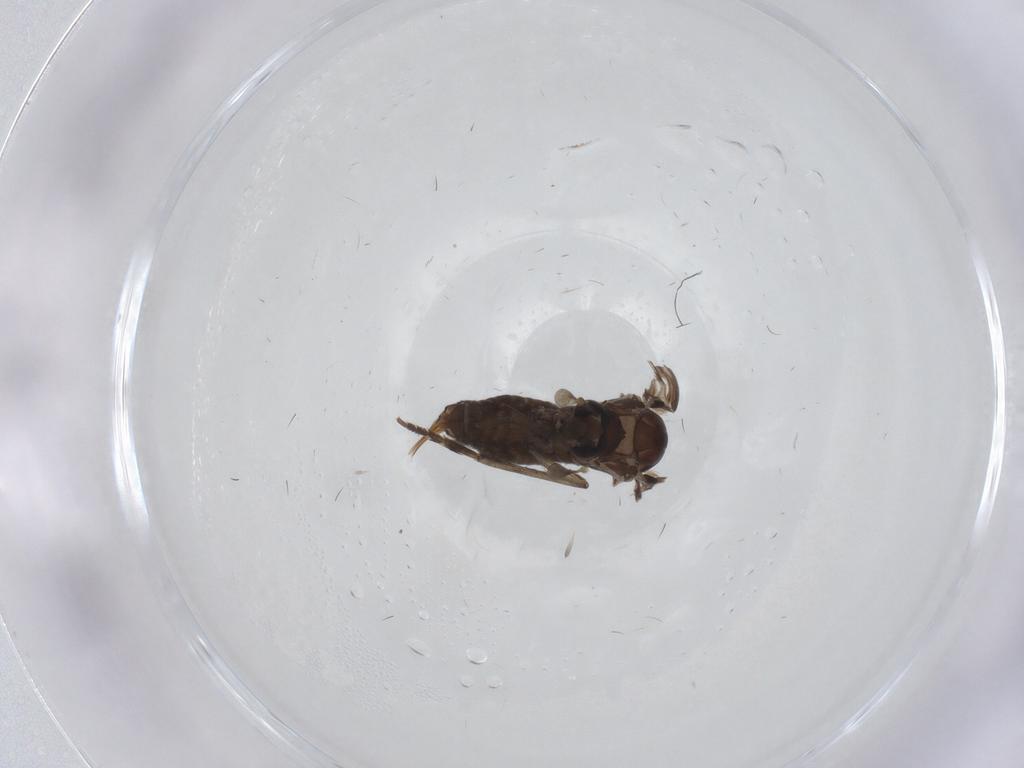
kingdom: Animalia
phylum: Arthropoda
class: Insecta
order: Diptera
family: Psychodidae
